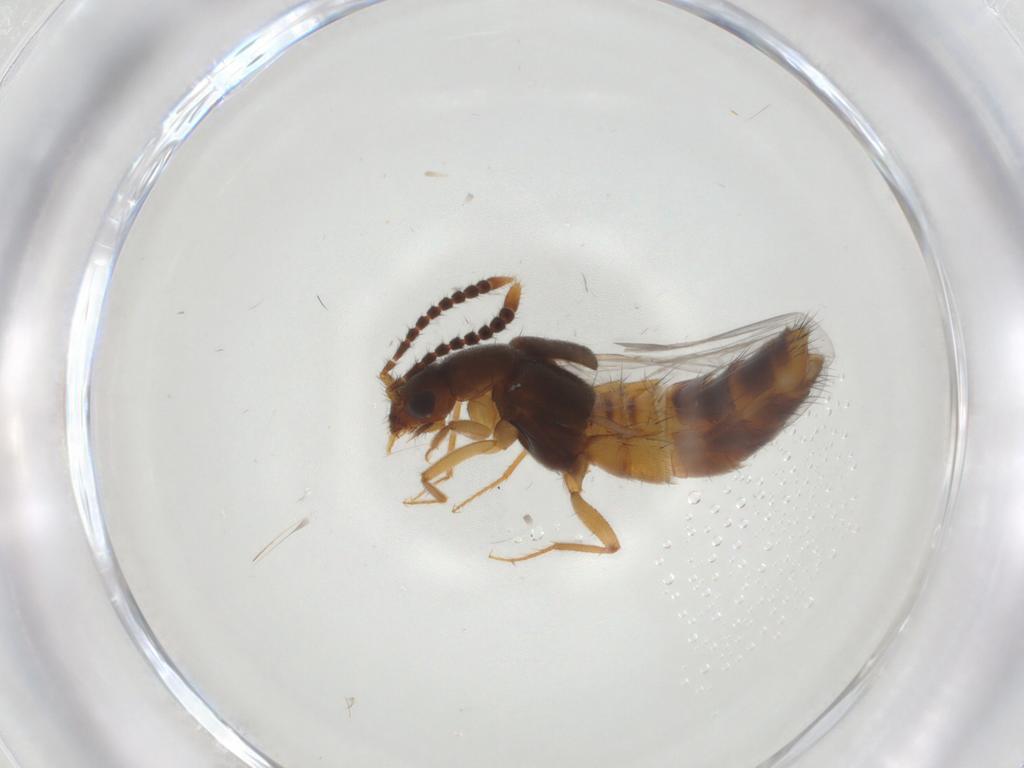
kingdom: Animalia
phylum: Arthropoda
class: Insecta
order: Coleoptera
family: Staphylinidae
